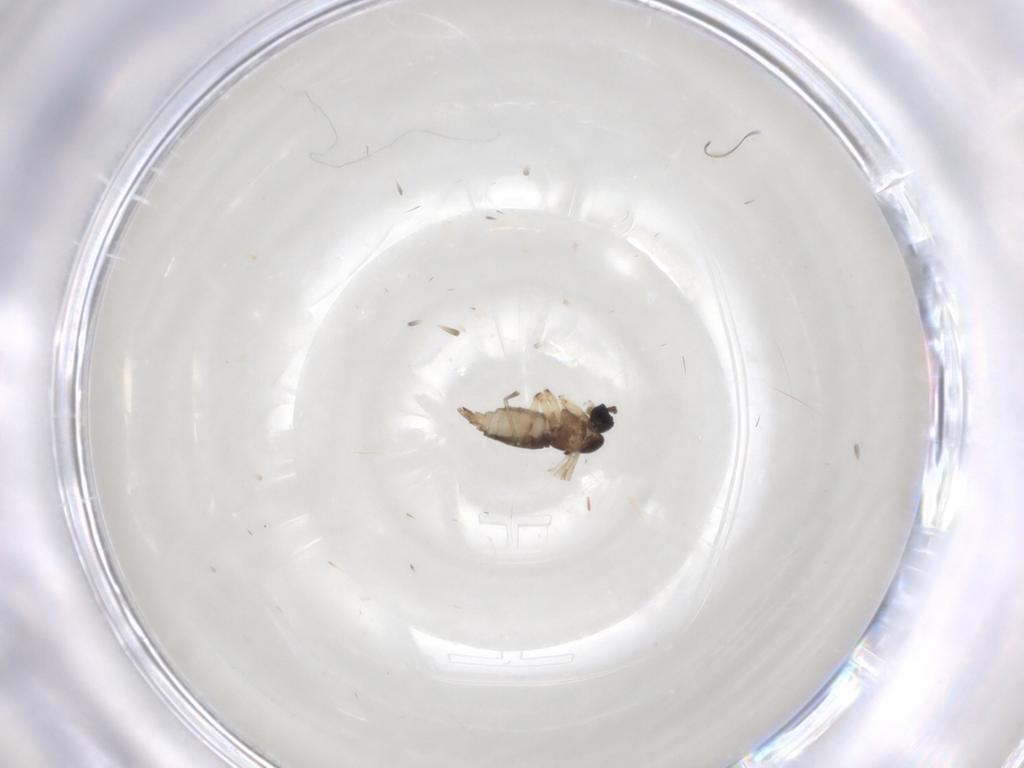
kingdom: Animalia
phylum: Arthropoda
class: Insecta
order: Diptera
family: Sciaridae
